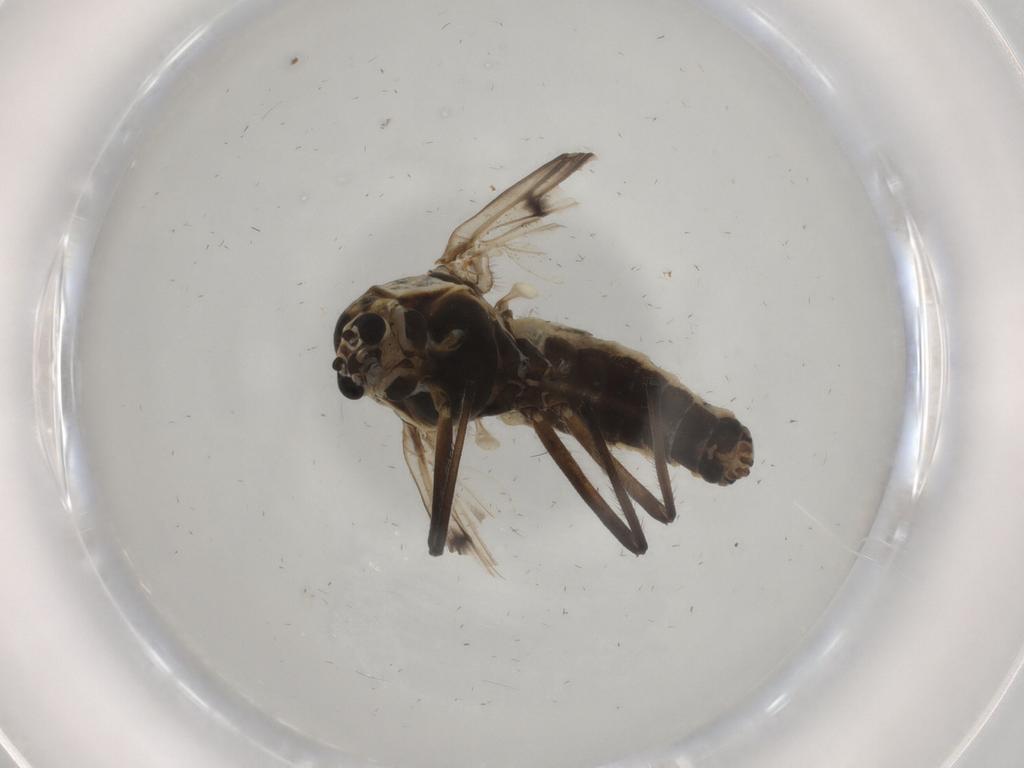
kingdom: Animalia
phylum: Arthropoda
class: Insecta
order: Diptera
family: Chironomidae
